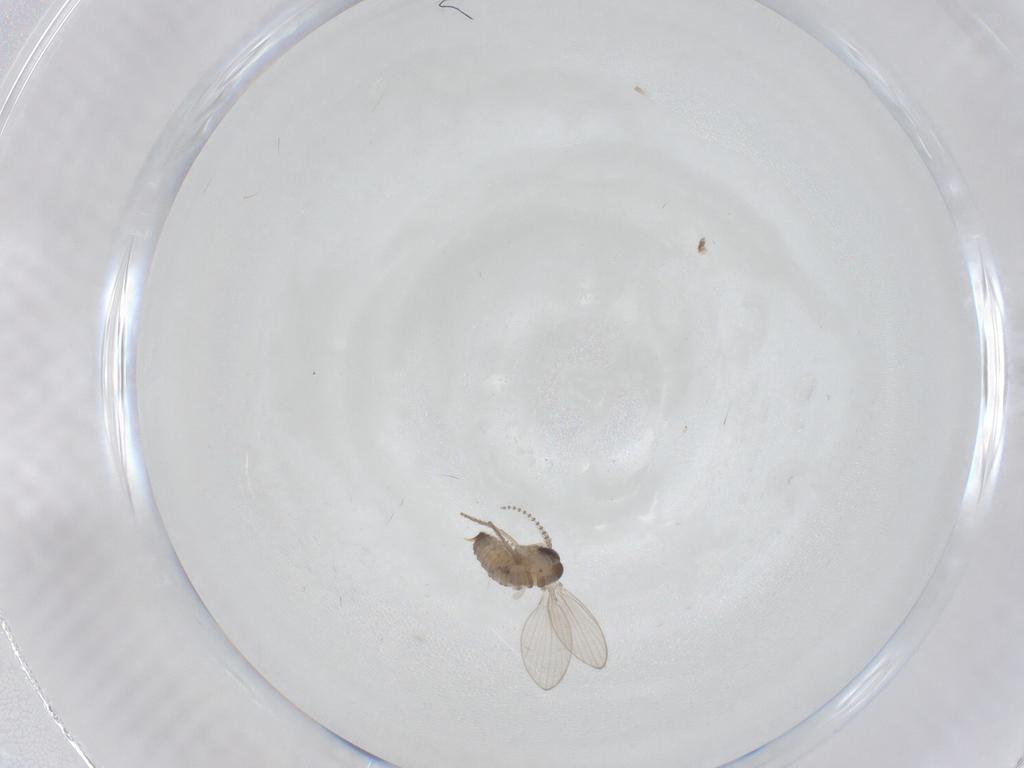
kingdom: Animalia
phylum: Arthropoda
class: Insecta
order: Diptera
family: Psychodidae
